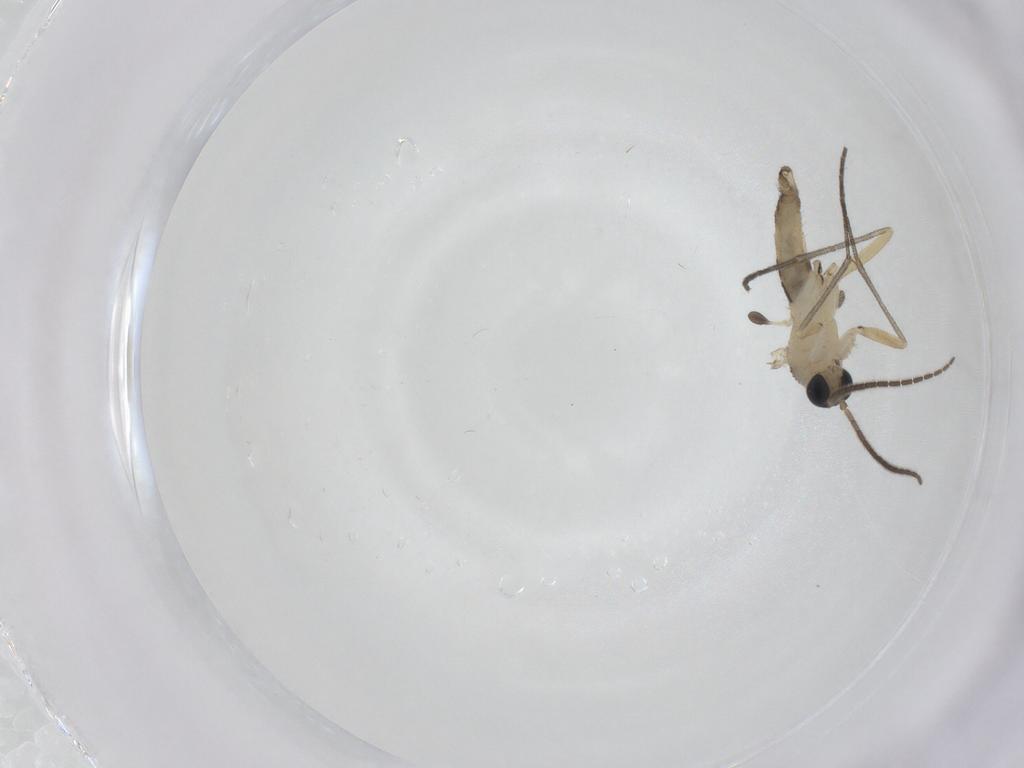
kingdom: Animalia
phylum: Arthropoda
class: Insecta
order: Diptera
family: Sciaridae
